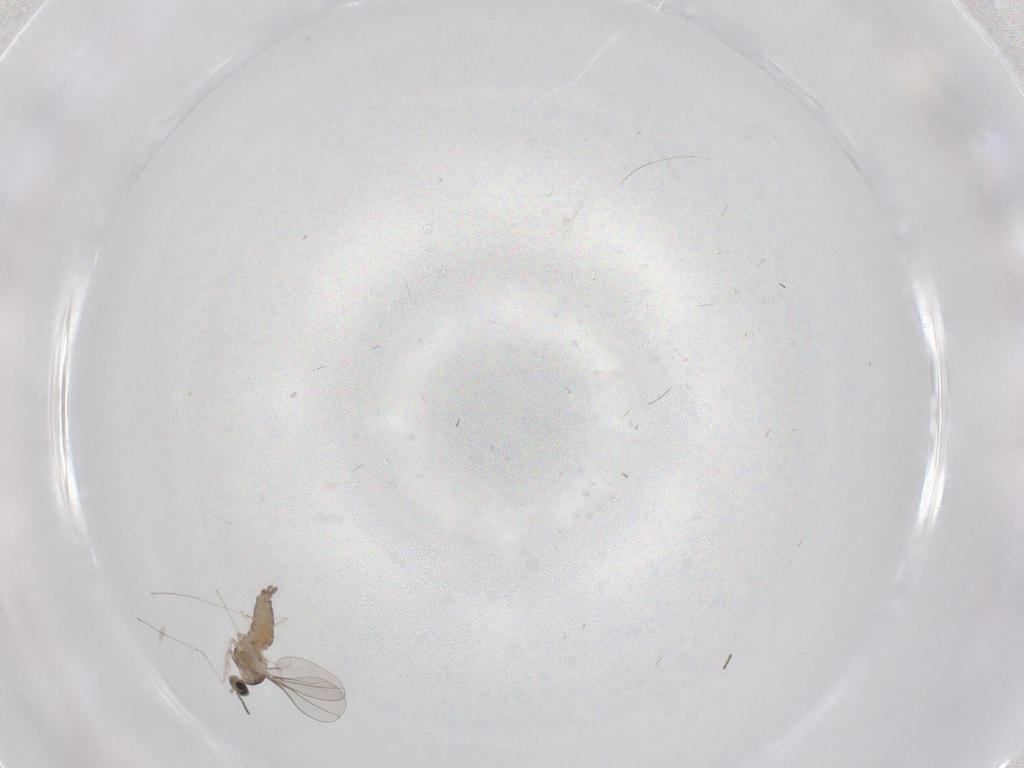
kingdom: Animalia
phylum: Arthropoda
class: Insecta
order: Diptera
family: Cecidomyiidae
